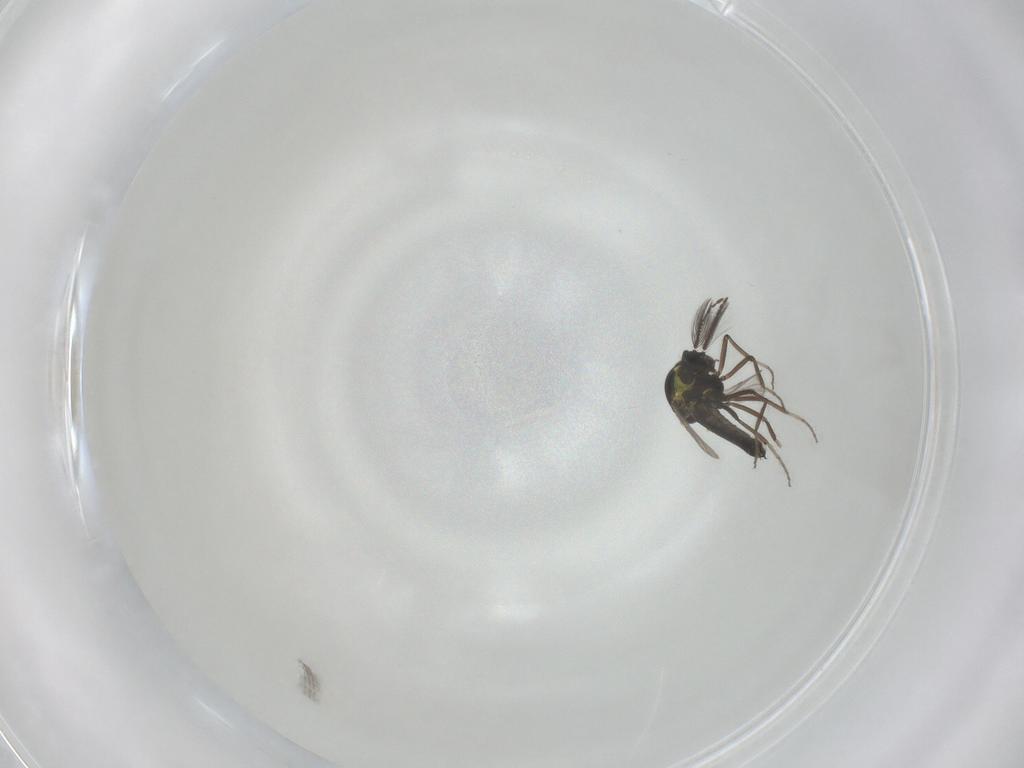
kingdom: Animalia
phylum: Arthropoda
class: Insecta
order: Diptera
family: Ceratopogonidae
